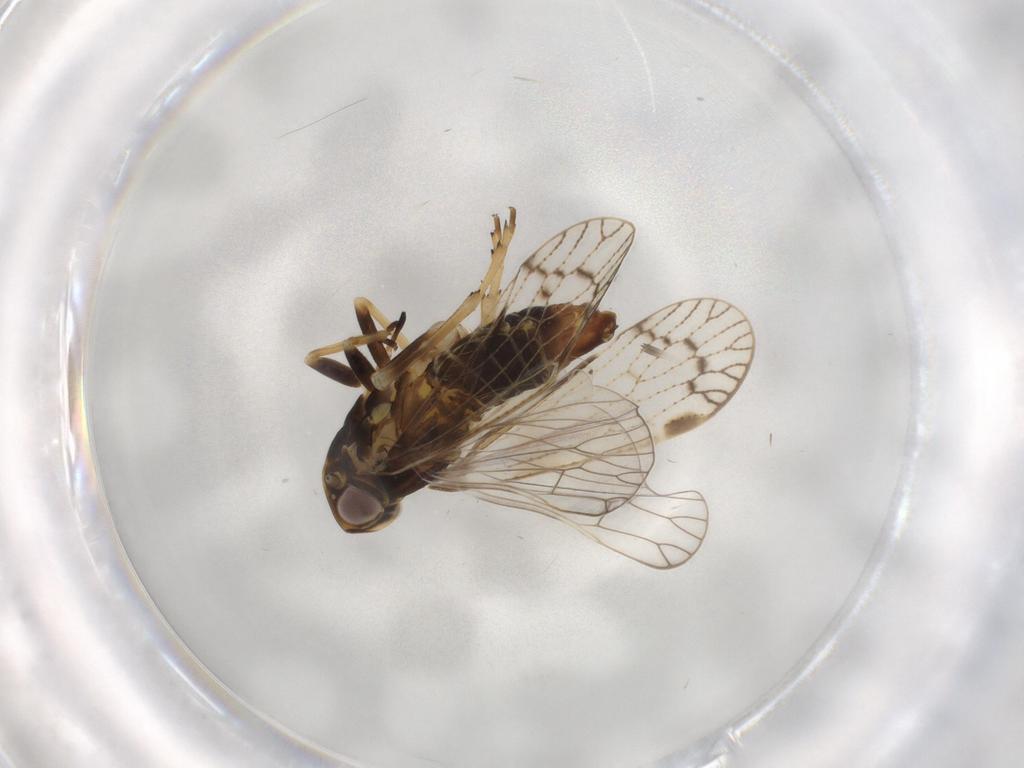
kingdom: Animalia
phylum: Arthropoda
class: Insecta
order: Hemiptera
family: Cixiidae
